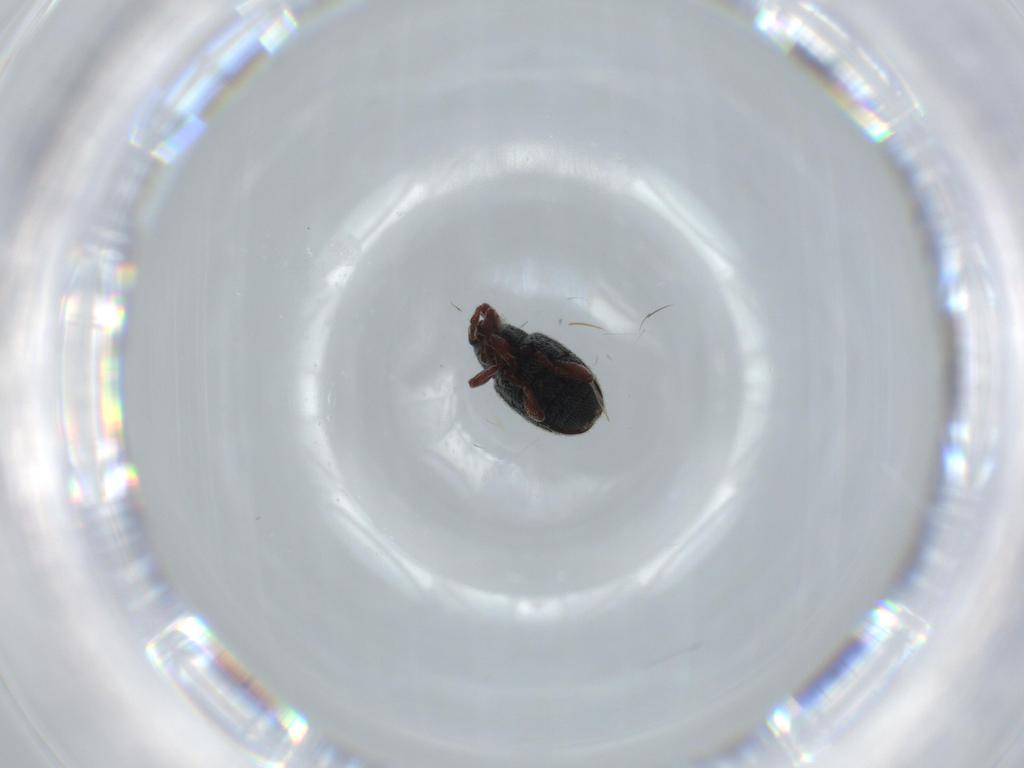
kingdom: Animalia
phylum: Arthropoda
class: Insecta
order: Coleoptera
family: Curculionidae
